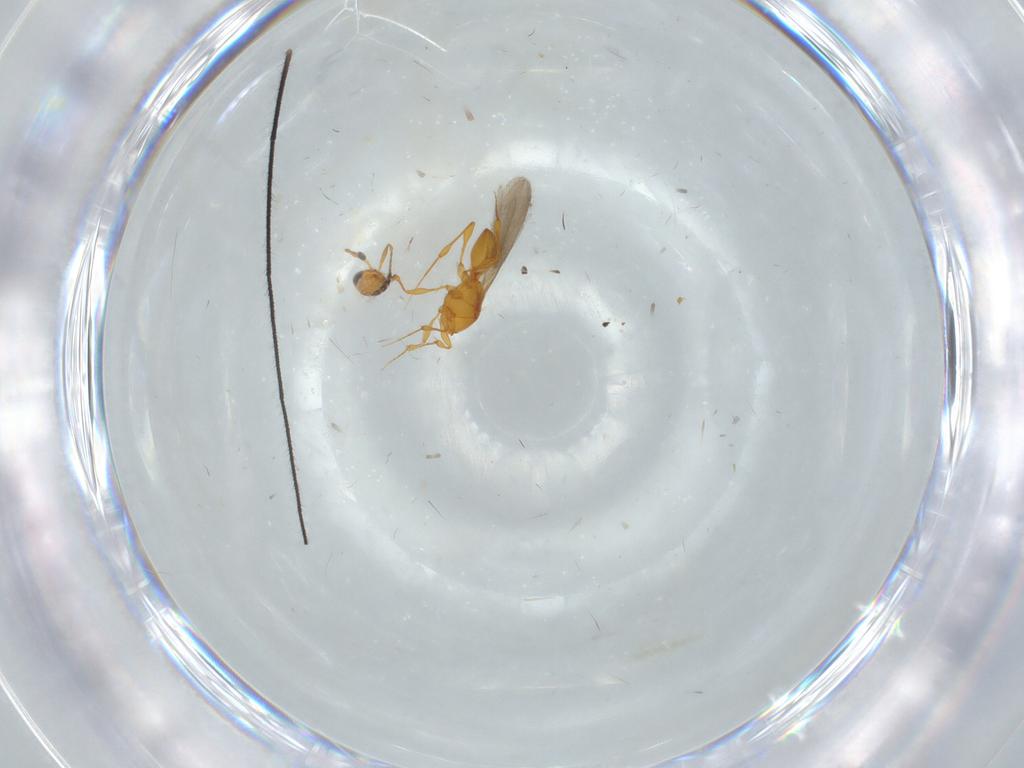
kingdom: Animalia
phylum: Arthropoda
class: Insecta
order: Hymenoptera
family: Platygastridae
